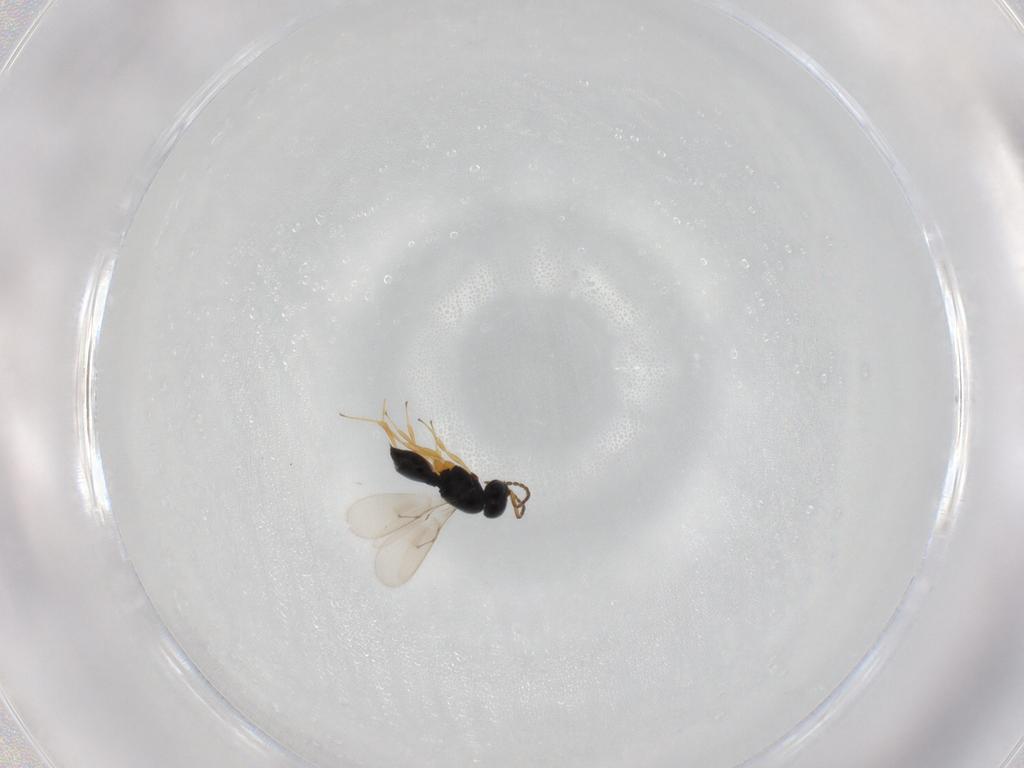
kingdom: Animalia
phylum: Arthropoda
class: Insecta
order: Hymenoptera
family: Scelionidae
